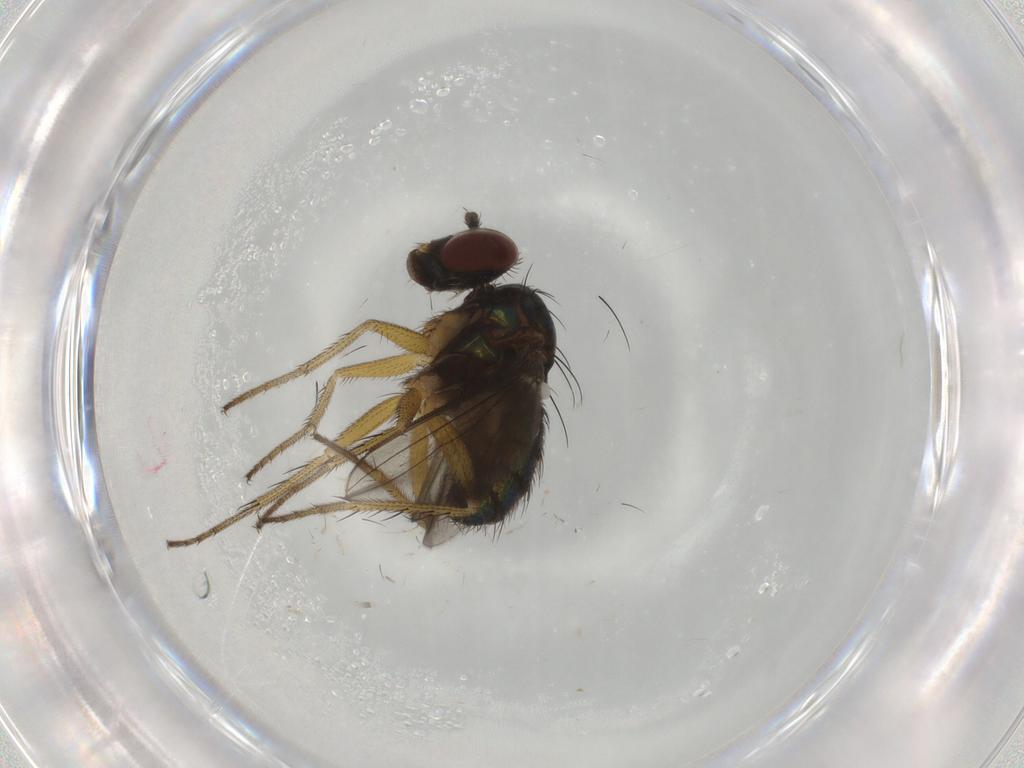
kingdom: Animalia
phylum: Arthropoda
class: Insecta
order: Diptera
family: Dolichopodidae
